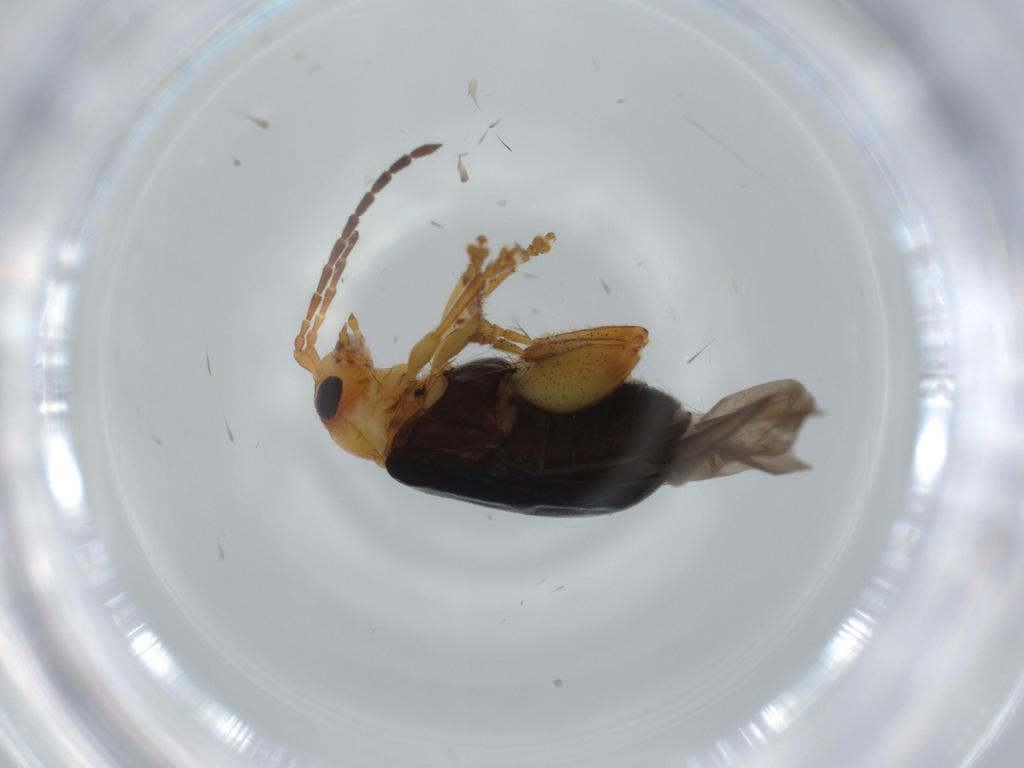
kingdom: Animalia
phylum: Arthropoda
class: Insecta
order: Coleoptera
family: Chrysomelidae
